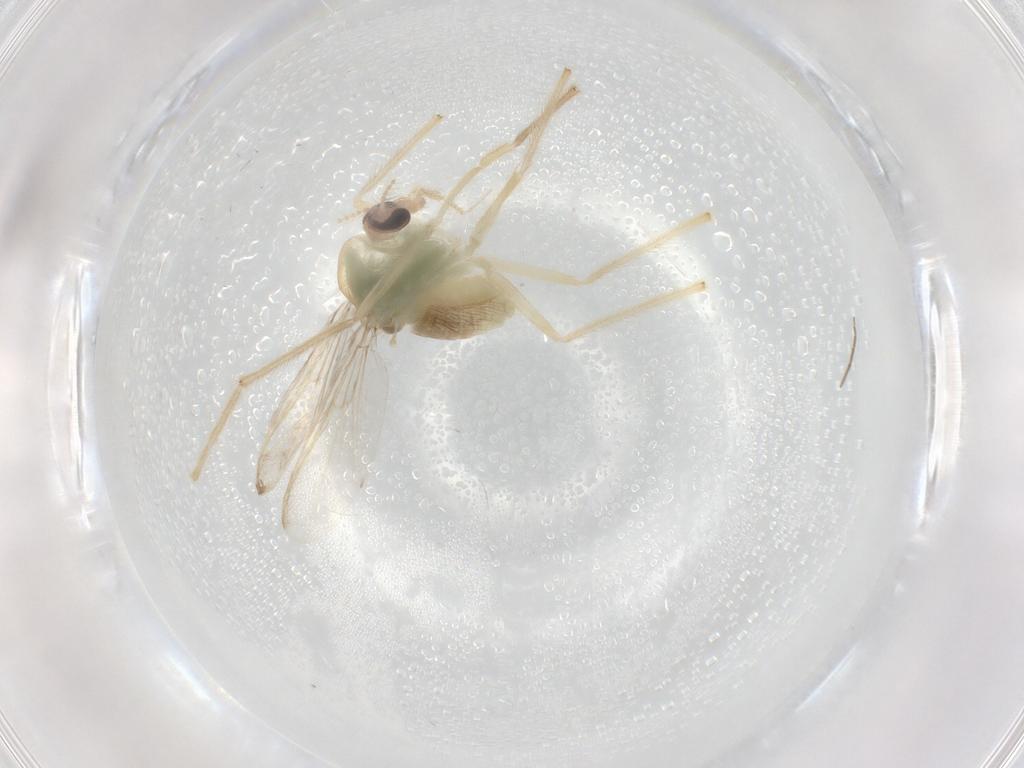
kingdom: Animalia
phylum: Arthropoda
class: Insecta
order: Diptera
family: Chironomidae
